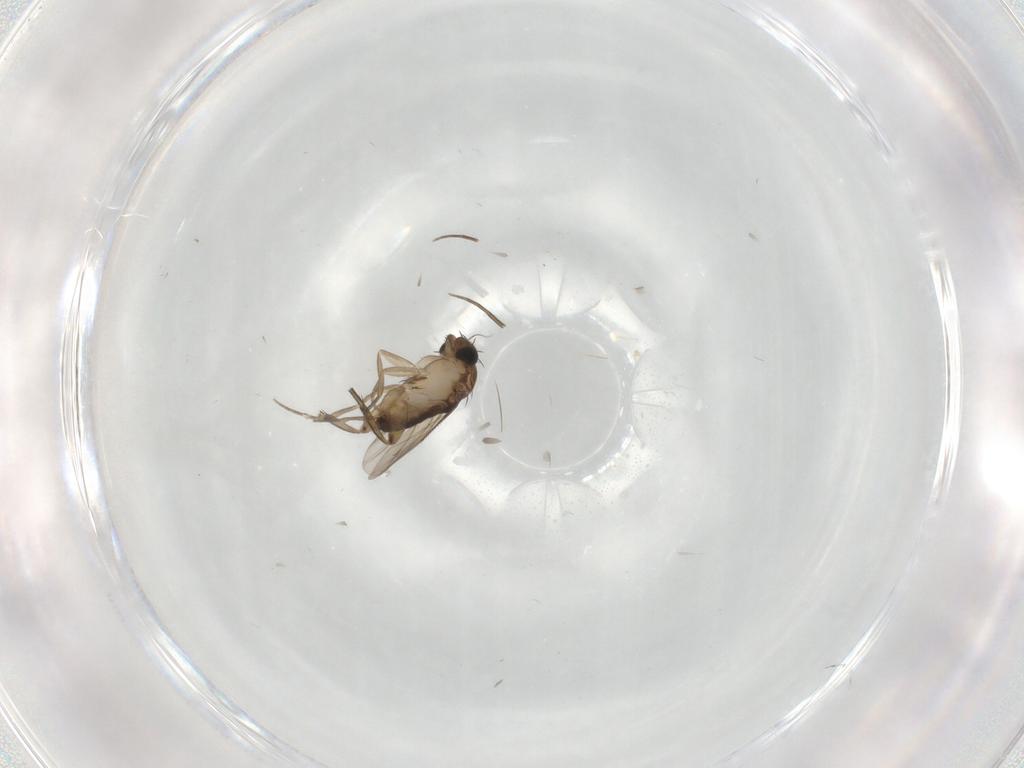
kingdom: Animalia
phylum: Arthropoda
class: Insecta
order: Diptera
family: Phoridae
